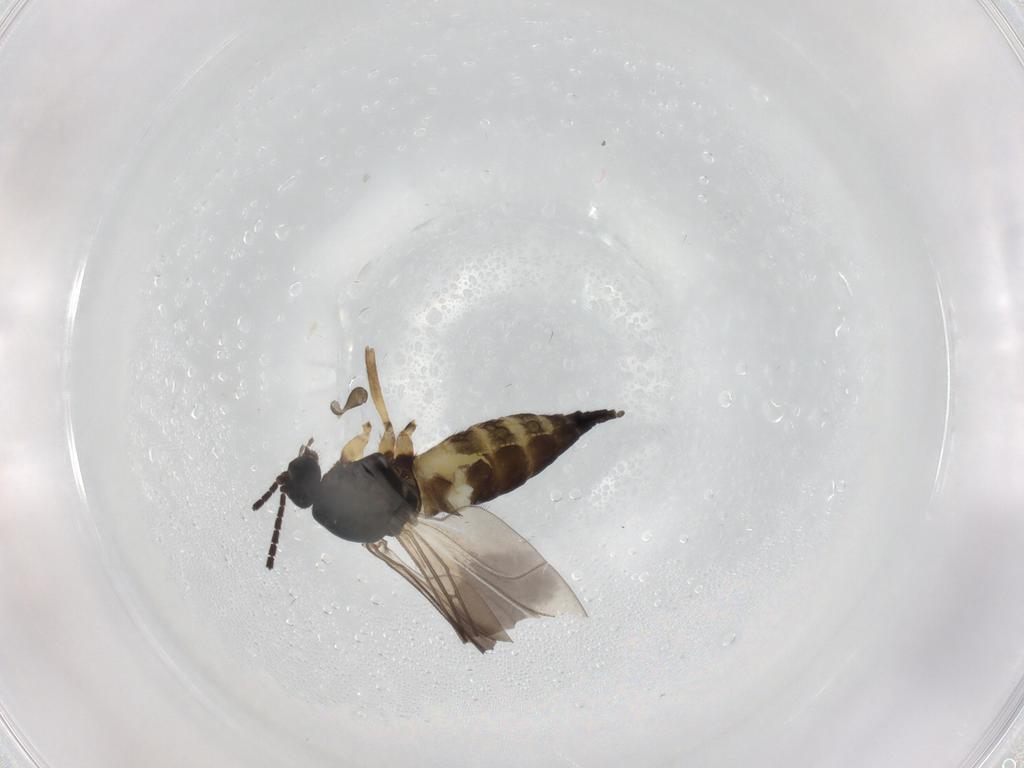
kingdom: Animalia
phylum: Arthropoda
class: Insecta
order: Diptera
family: Sciaridae
